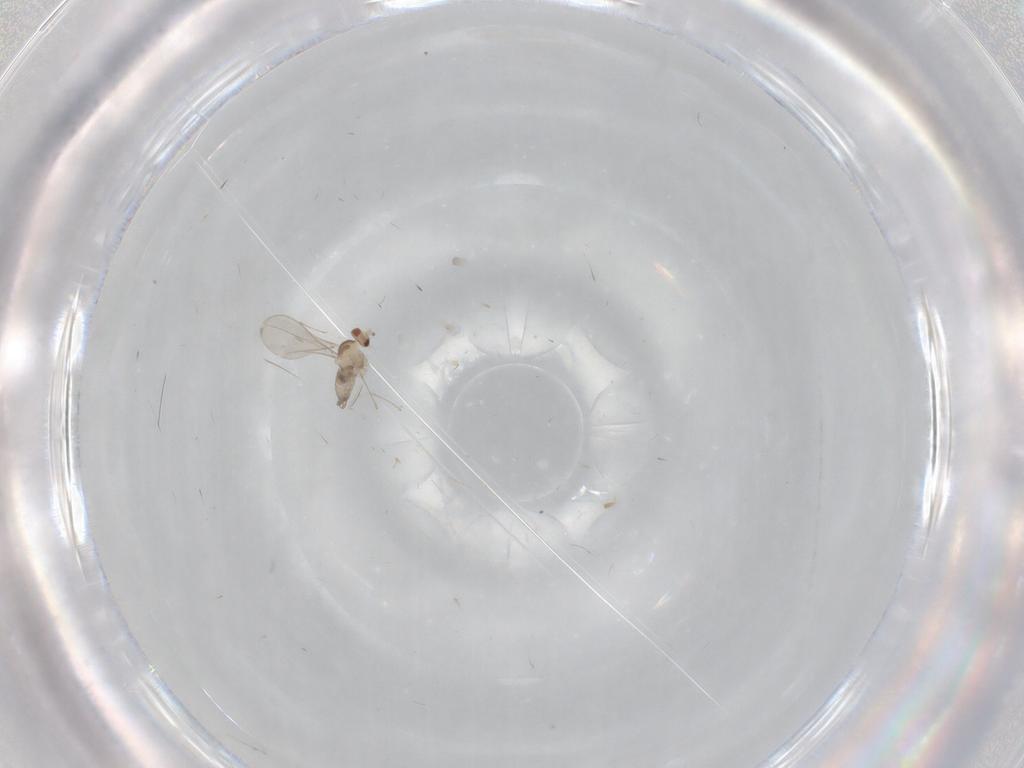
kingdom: Animalia
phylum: Arthropoda
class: Insecta
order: Diptera
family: Cecidomyiidae
